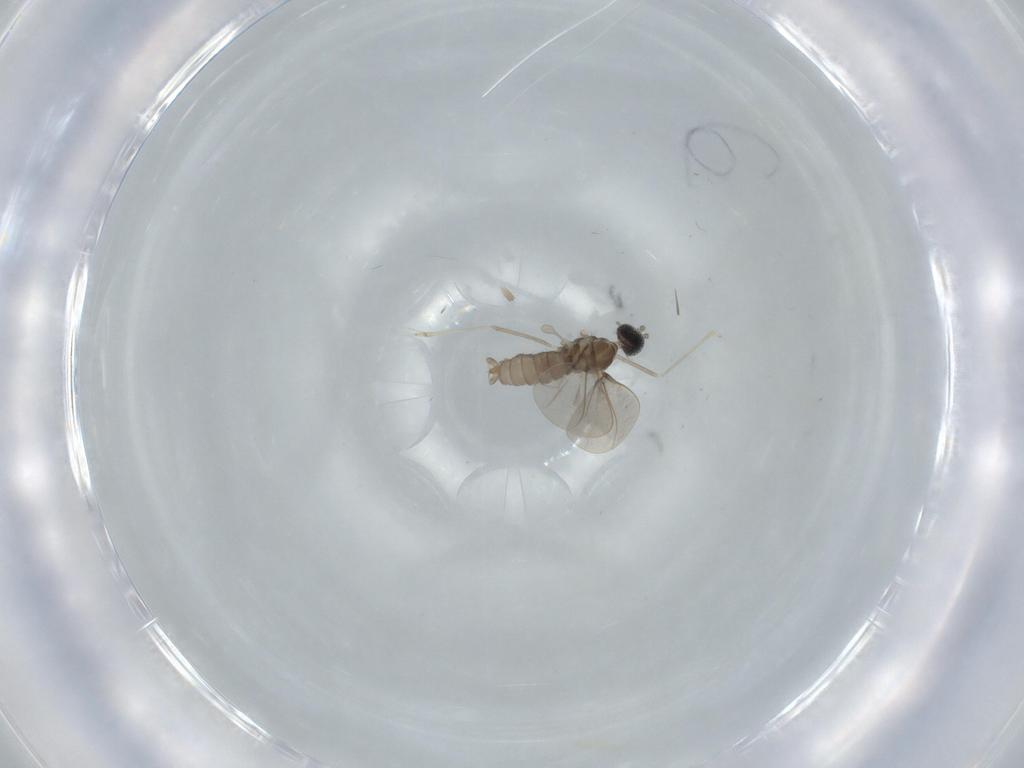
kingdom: Animalia
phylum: Arthropoda
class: Insecta
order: Diptera
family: Cecidomyiidae
